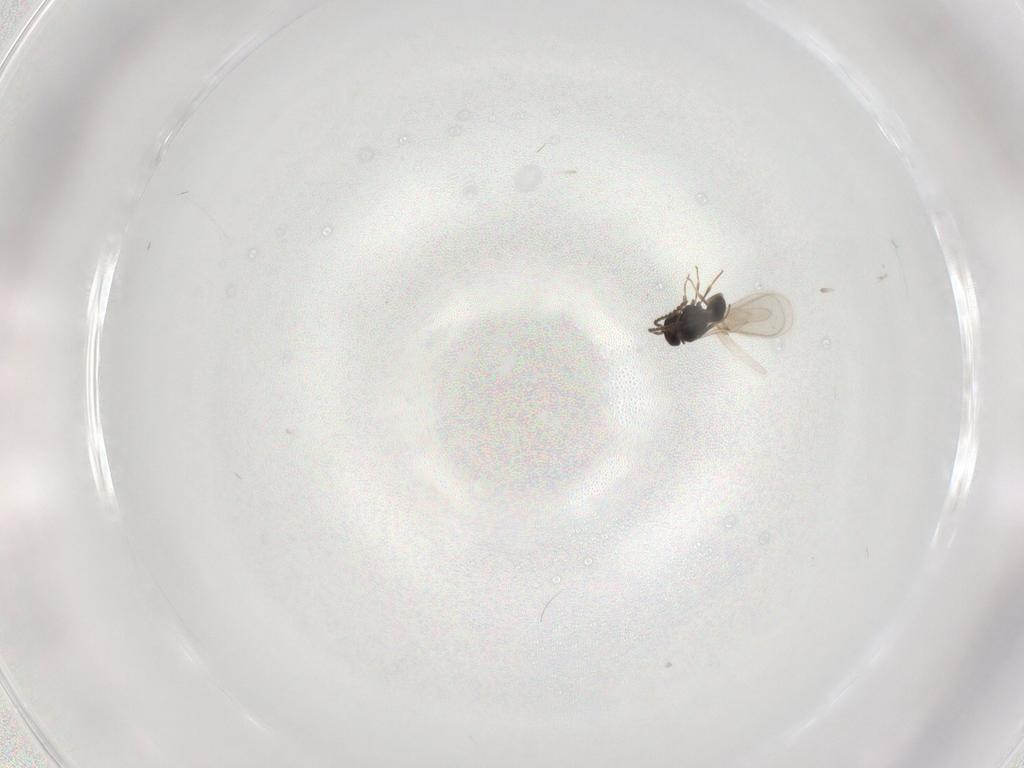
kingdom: Animalia
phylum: Arthropoda
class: Insecta
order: Hymenoptera
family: Scelionidae
